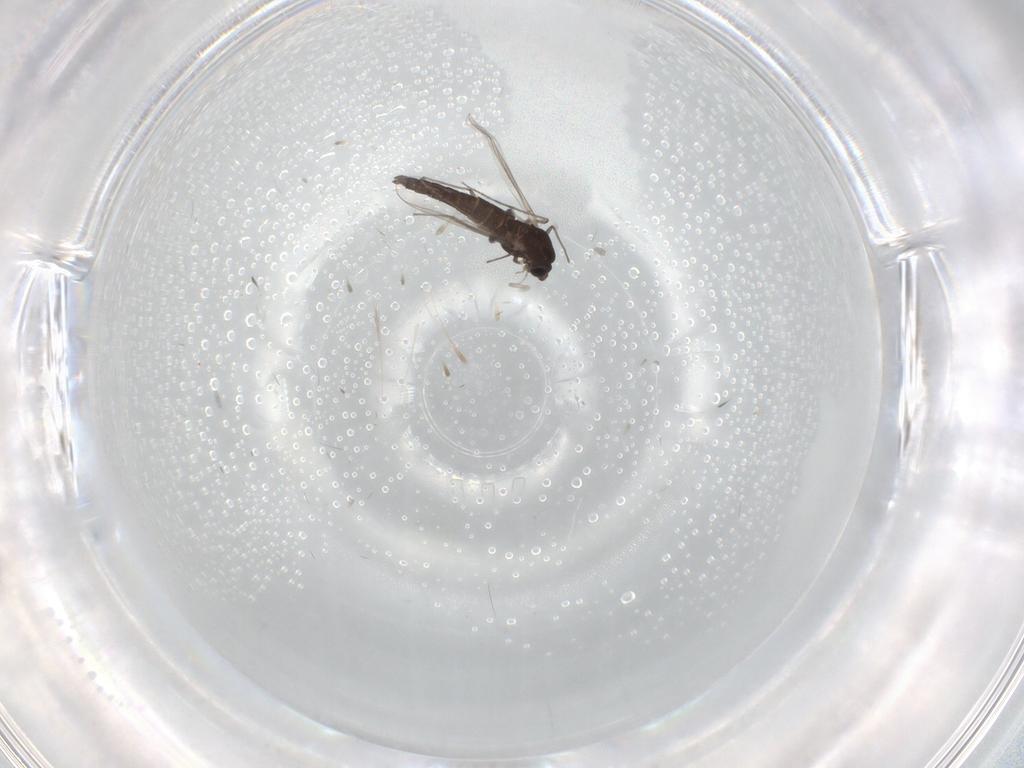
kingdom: Animalia
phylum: Arthropoda
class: Insecta
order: Diptera
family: Chironomidae
